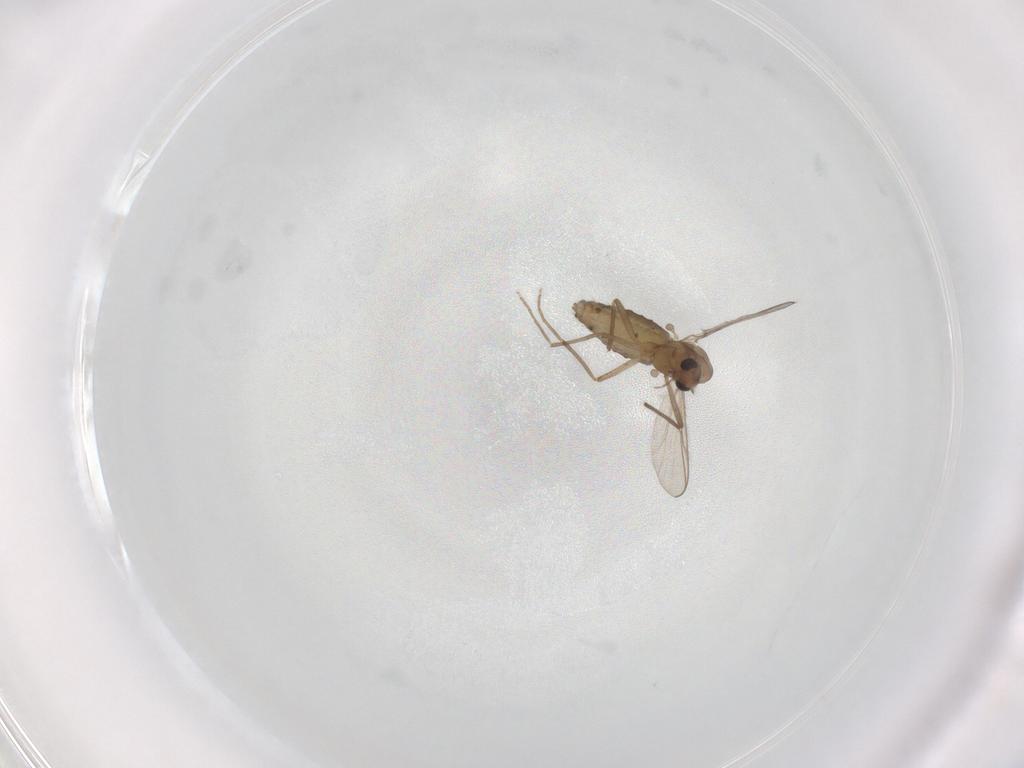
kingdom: Animalia
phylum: Arthropoda
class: Insecta
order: Diptera
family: Chironomidae
